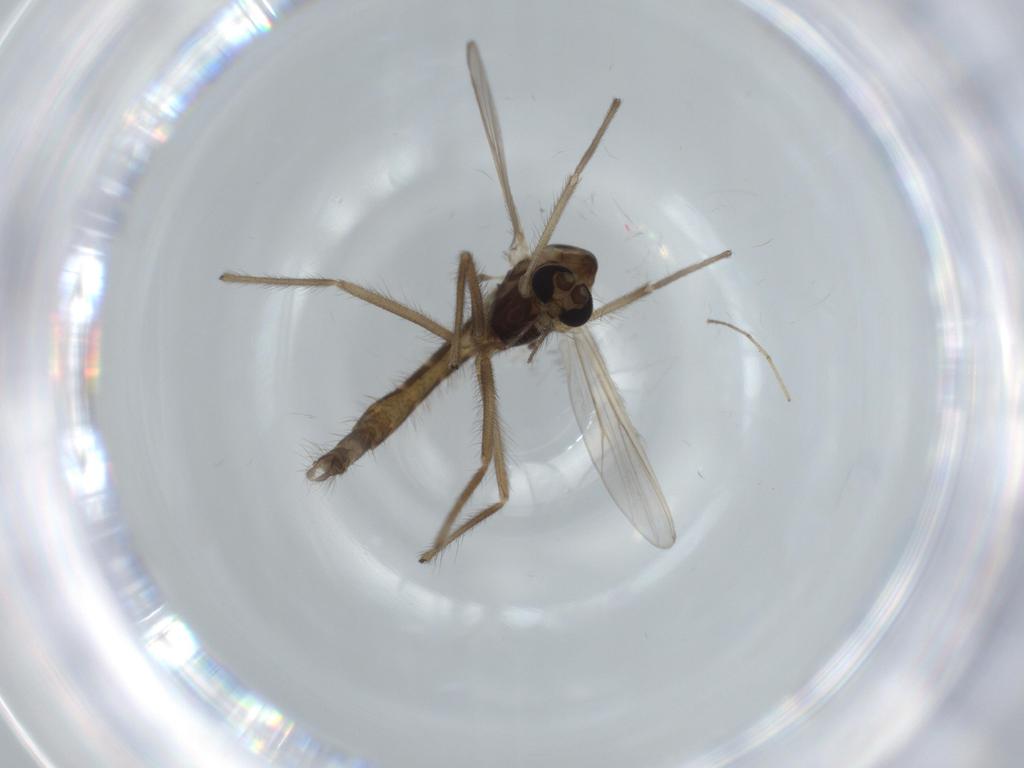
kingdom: Animalia
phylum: Arthropoda
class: Insecta
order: Diptera
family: Chironomidae
